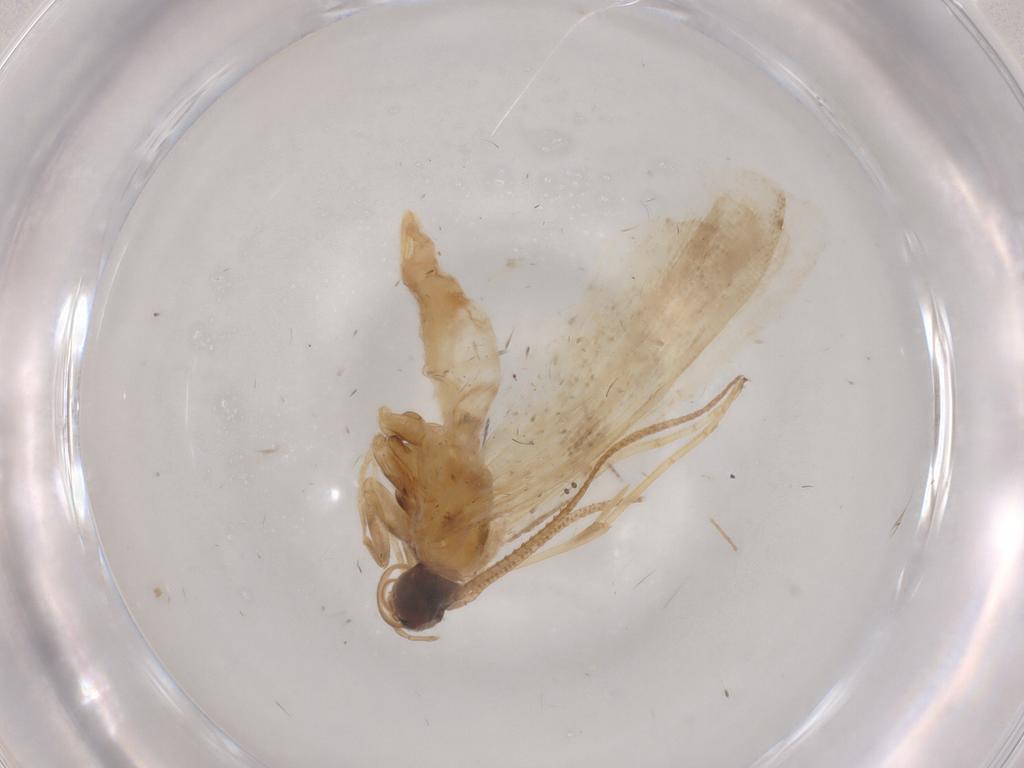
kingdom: Animalia
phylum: Arthropoda
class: Insecta
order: Lepidoptera
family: Noctuidae
